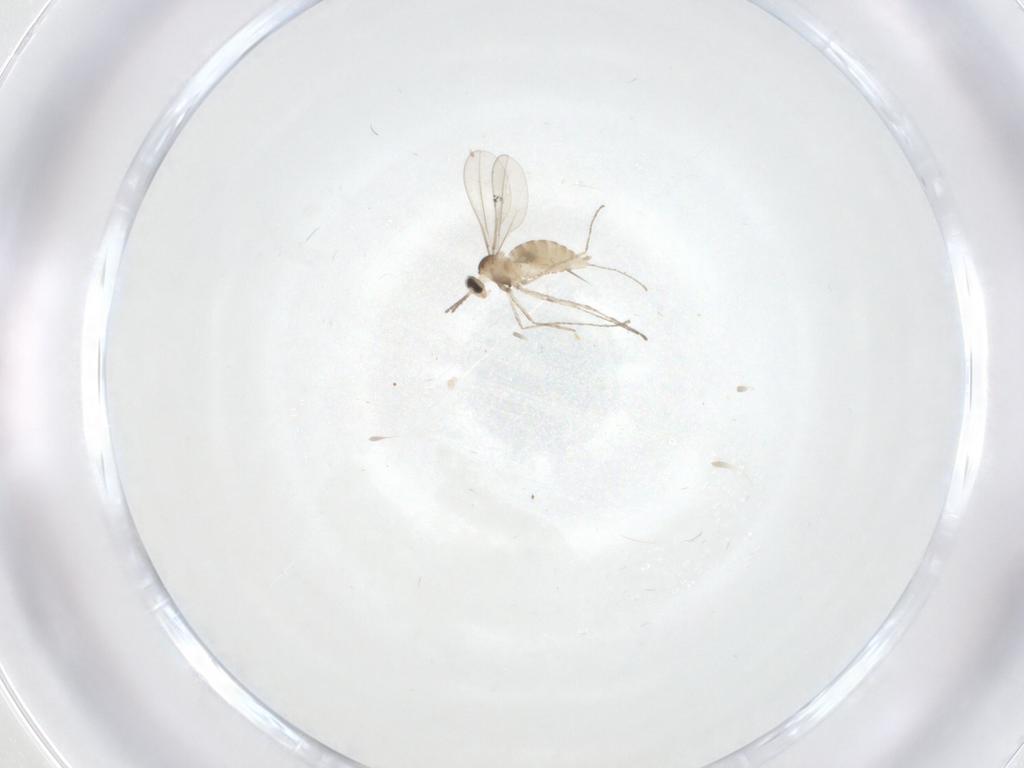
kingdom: Animalia
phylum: Arthropoda
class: Insecta
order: Diptera
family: Cecidomyiidae
